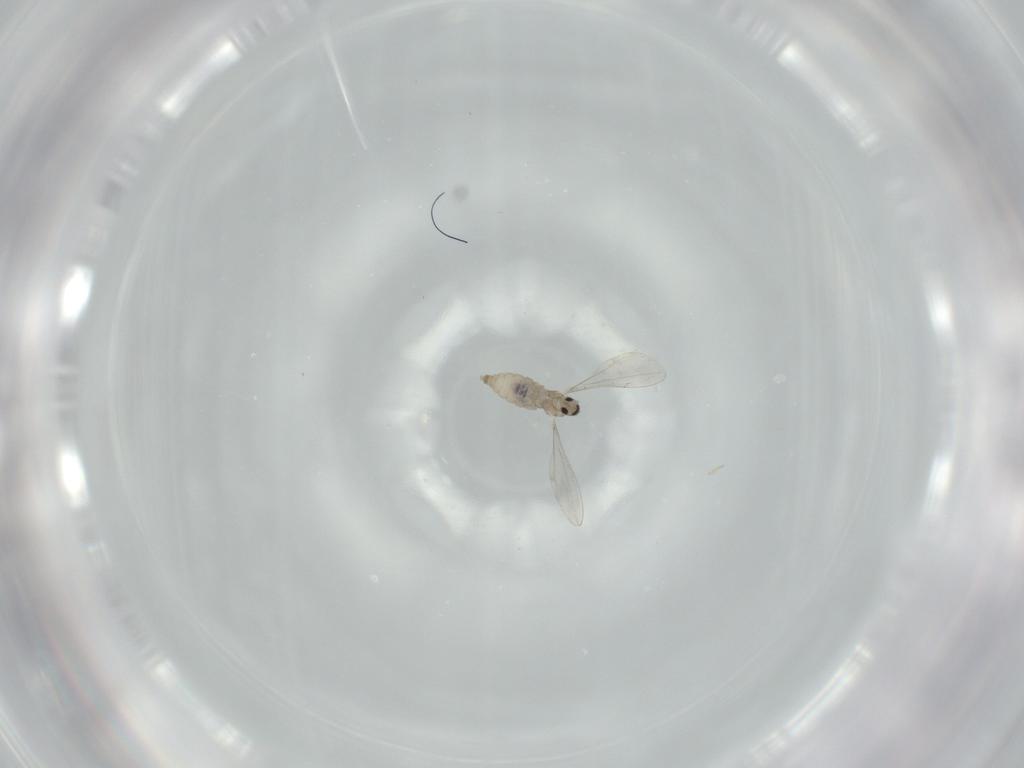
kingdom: Animalia
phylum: Arthropoda
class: Insecta
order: Diptera
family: Cecidomyiidae
